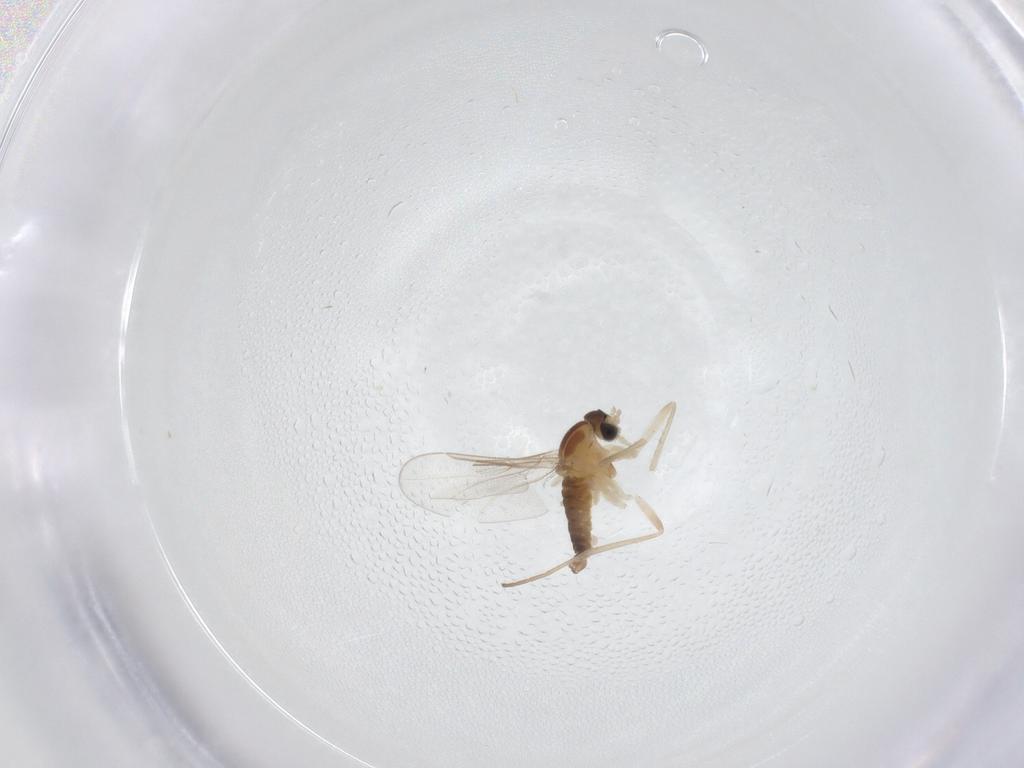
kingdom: Animalia
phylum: Arthropoda
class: Insecta
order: Diptera
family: Cecidomyiidae
